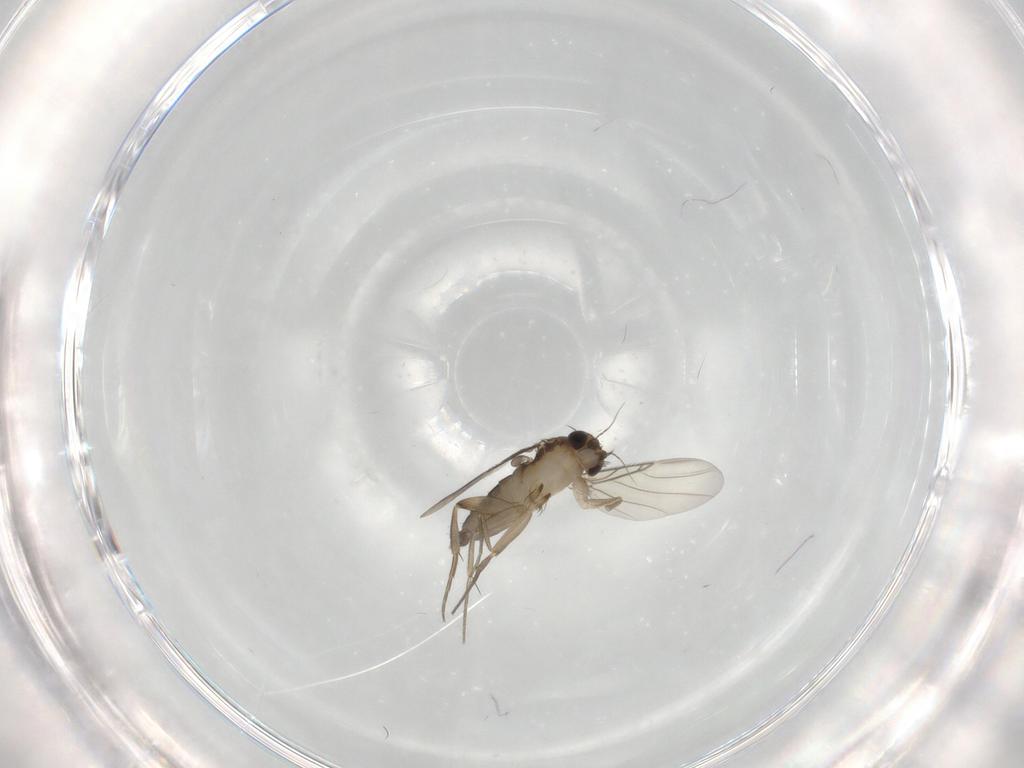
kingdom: Animalia
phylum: Arthropoda
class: Insecta
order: Diptera
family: Phoridae
